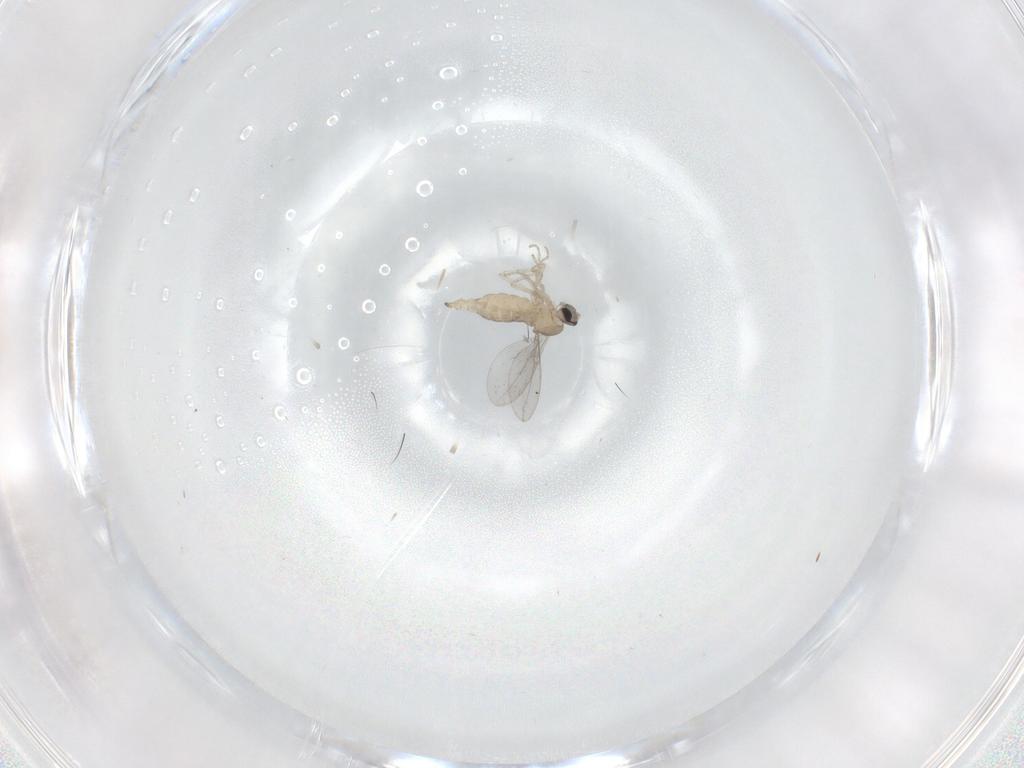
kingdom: Animalia
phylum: Arthropoda
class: Insecta
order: Diptera
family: Cecidomyiidae
